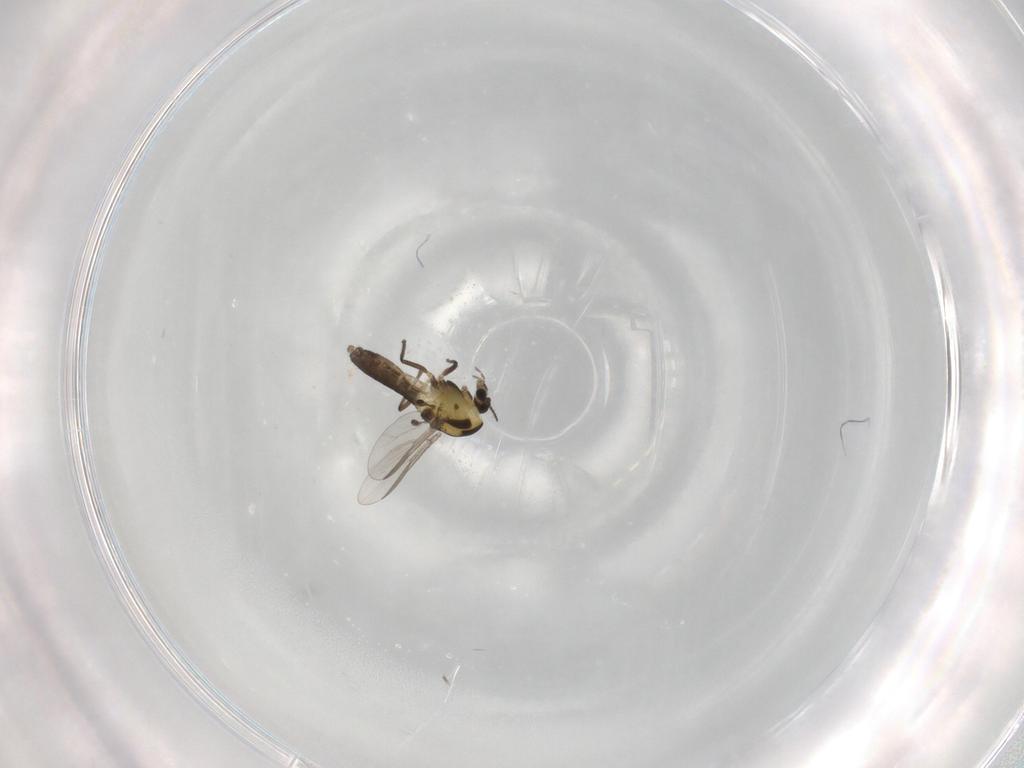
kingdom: Animalia
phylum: Arthropoda
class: Insecta
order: Diptera
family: Chironomidae
